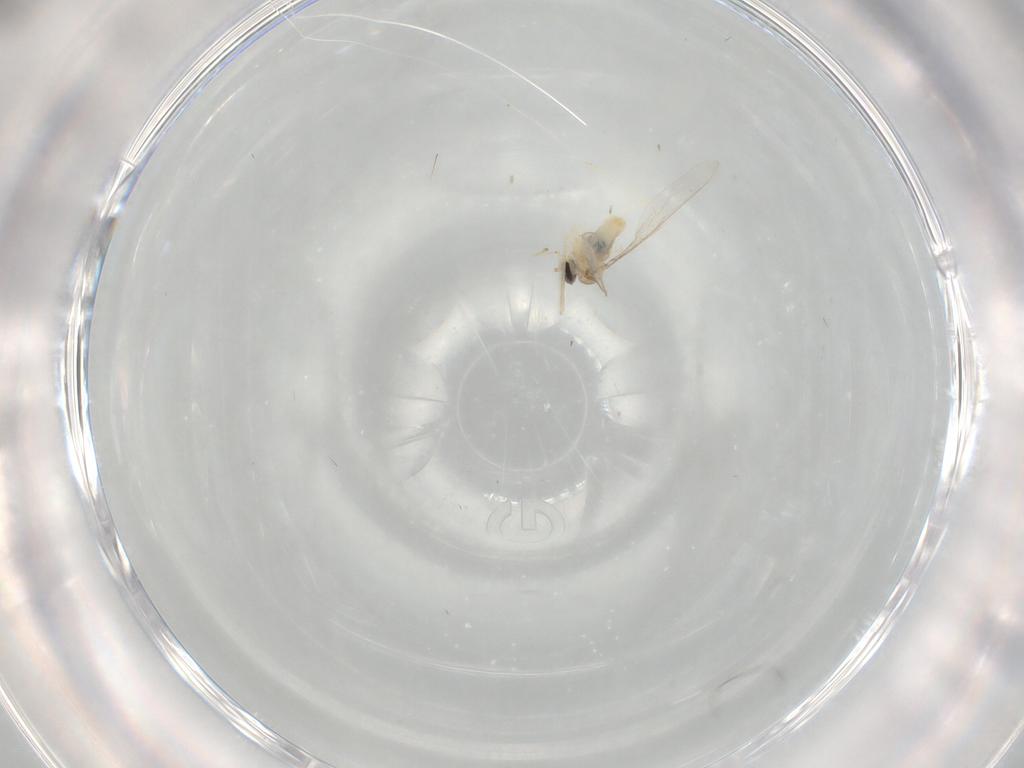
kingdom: Animalia
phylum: Arthropoda
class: Insecta
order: Diptera
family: Cecidomyiidae
